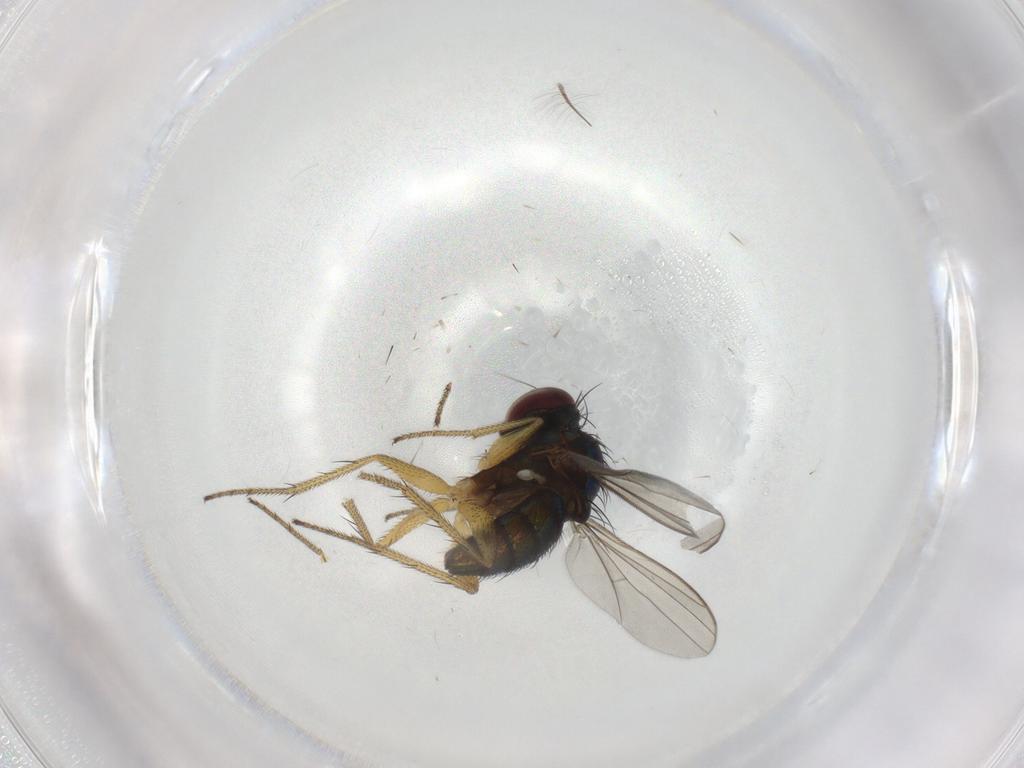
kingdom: Animalia
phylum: Arthropoda
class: Insecta
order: Diptera
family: Dolichopodidae
